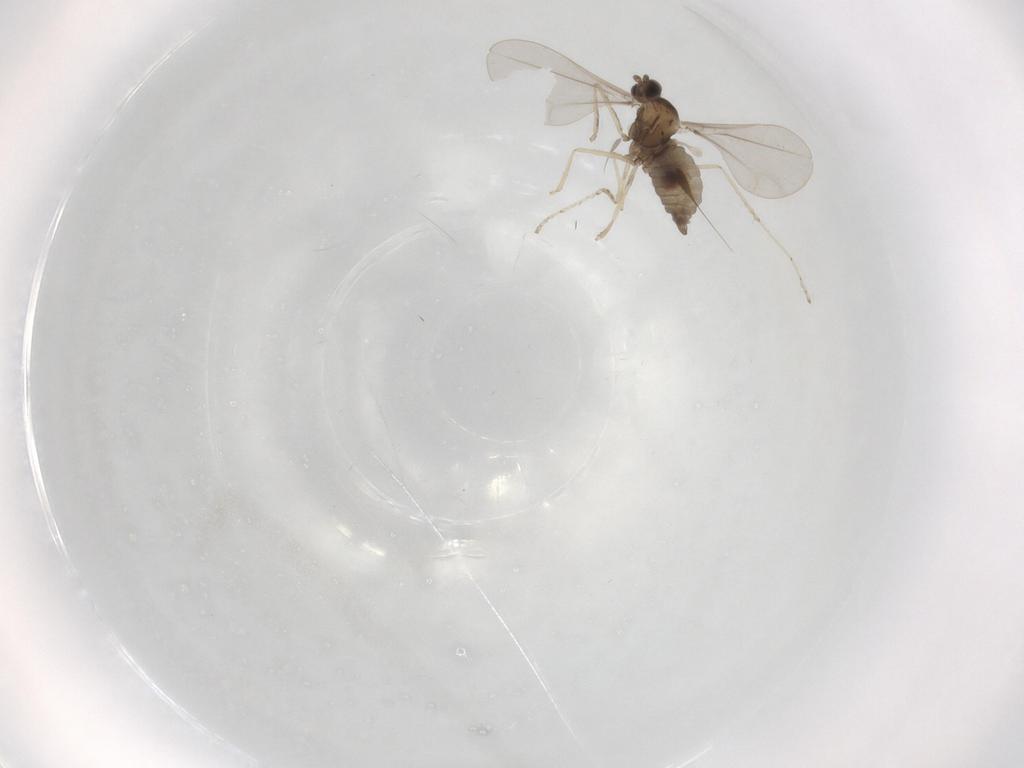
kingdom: Animalia
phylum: Arthropoda
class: Insecta
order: Diptera
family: Cecidomyiidae
